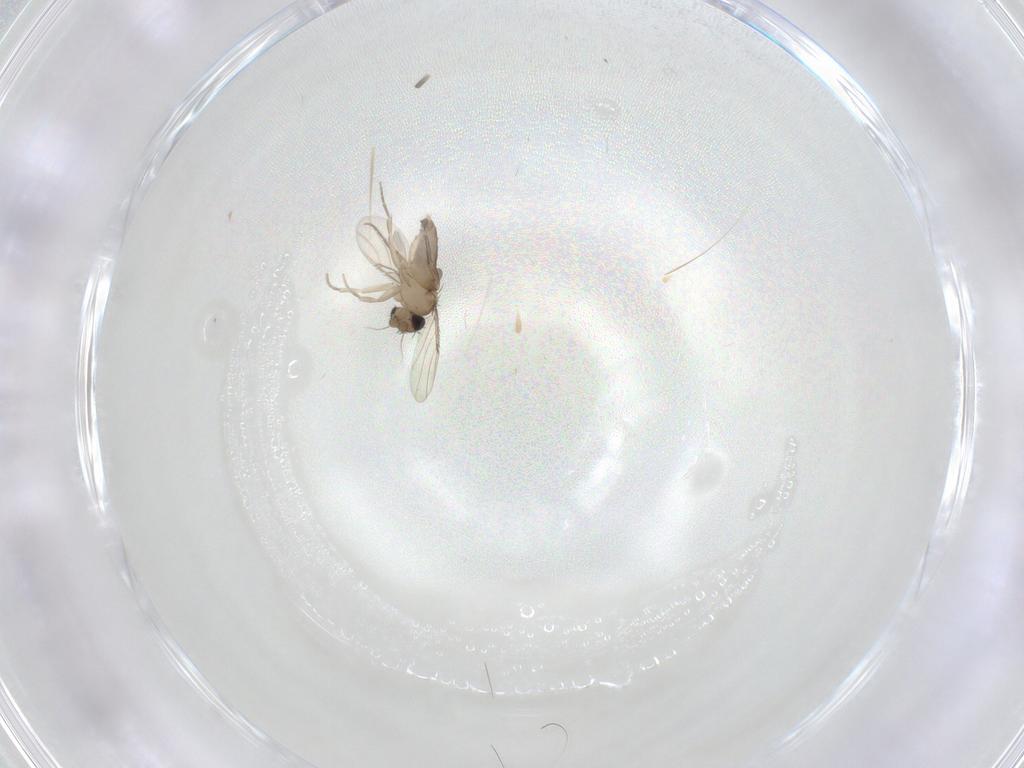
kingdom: Animalia
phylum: Arthropoda
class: Insecta
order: Diptera
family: Phoridae
